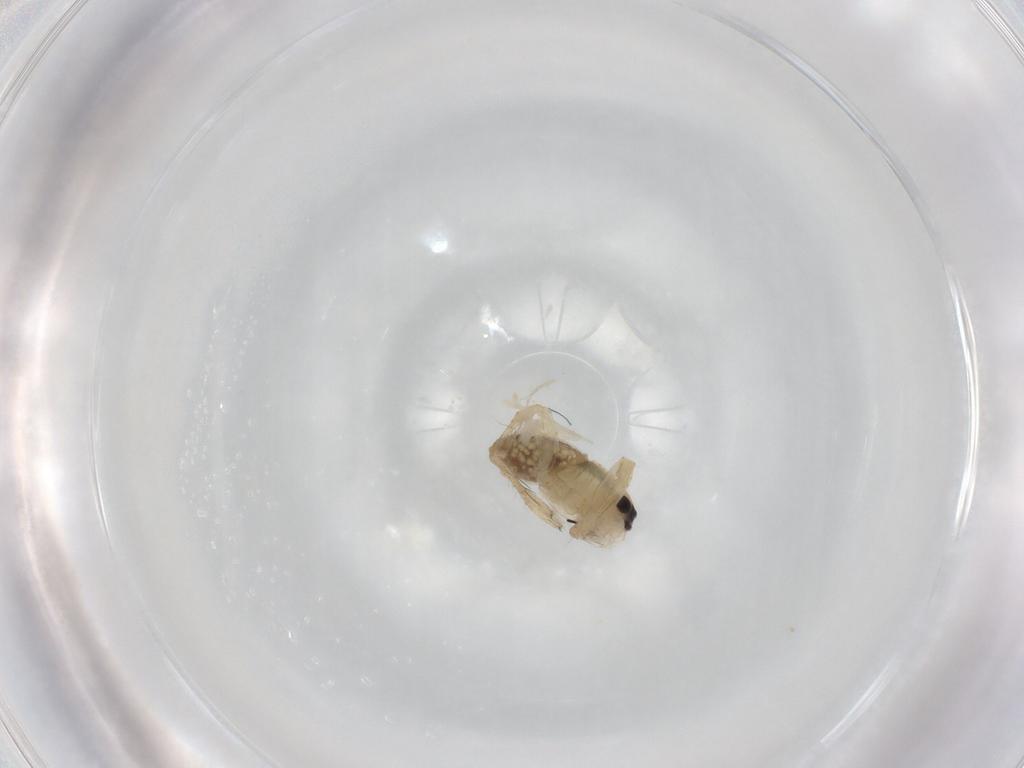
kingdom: Animalia
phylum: Arthropoda
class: Arachnida
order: Araneae
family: Pisauridae
